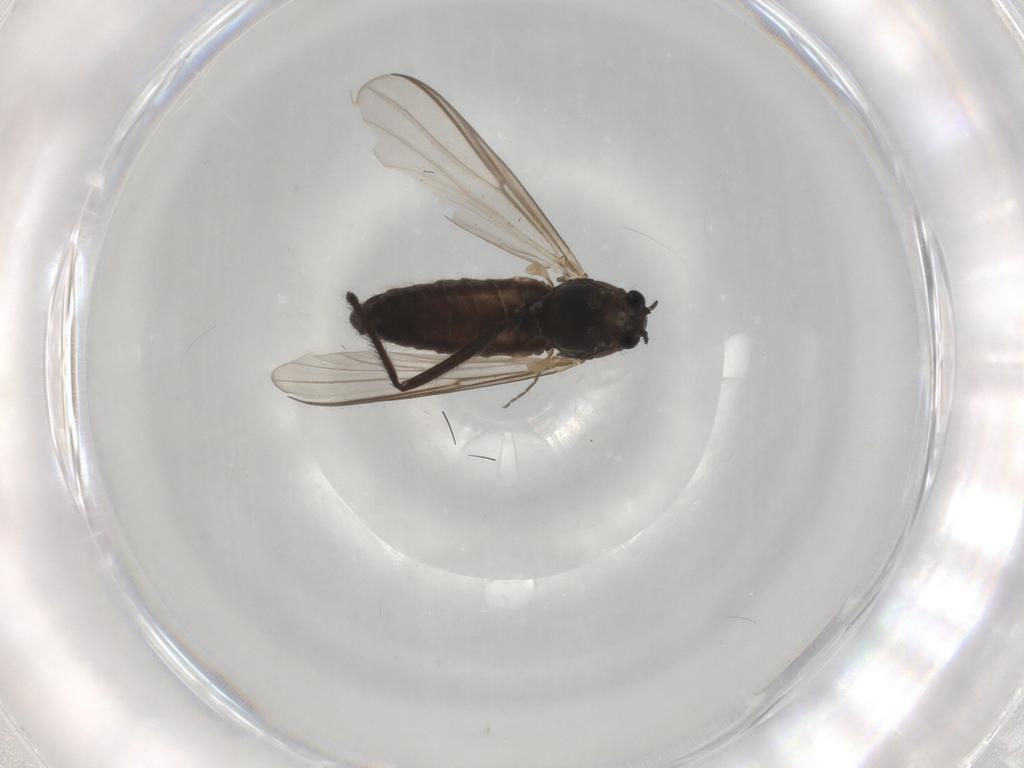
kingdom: Animalia
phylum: Arthropoda
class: Insecta
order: Diptera
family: Chironomidae
